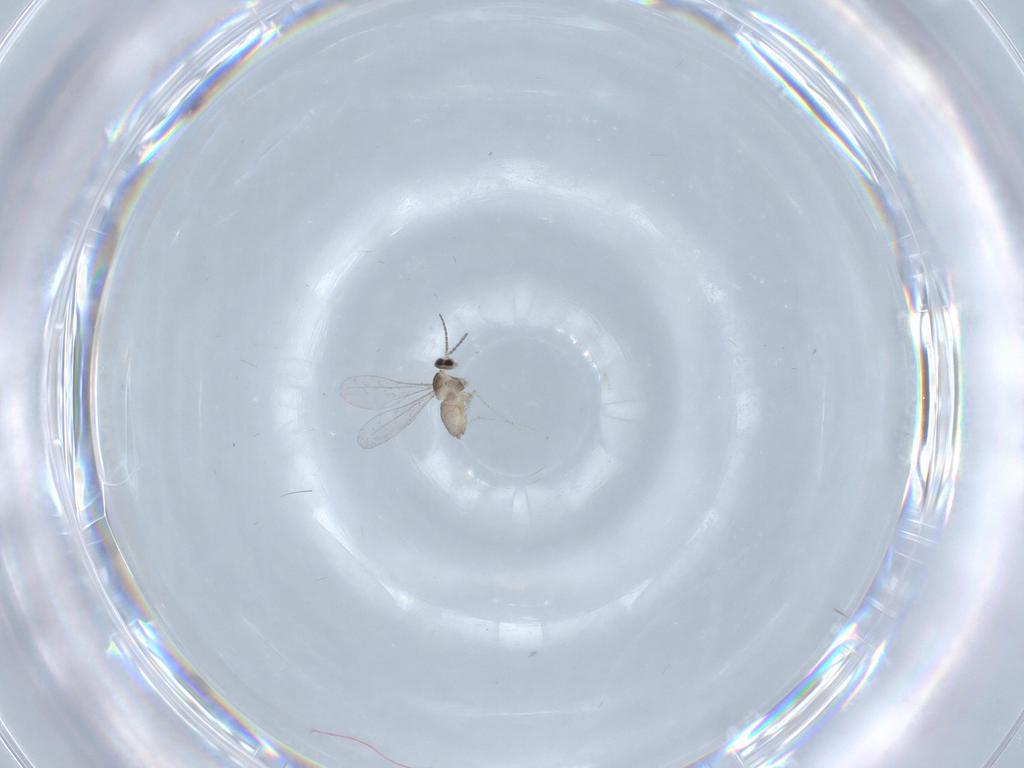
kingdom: Animalia
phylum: Arthropoda
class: Insecta
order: Diptera
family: Cecidomyiidae
